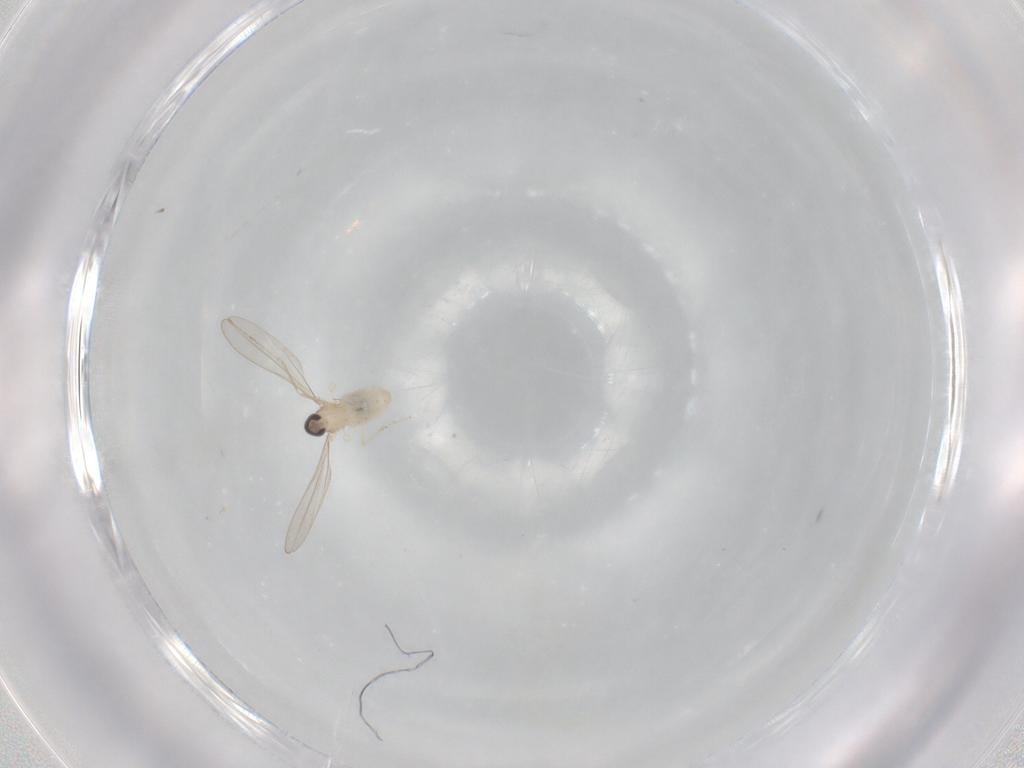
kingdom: Animalia
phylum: Arthropoda
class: Insecta
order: Diptera
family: Cecidomyiidae
